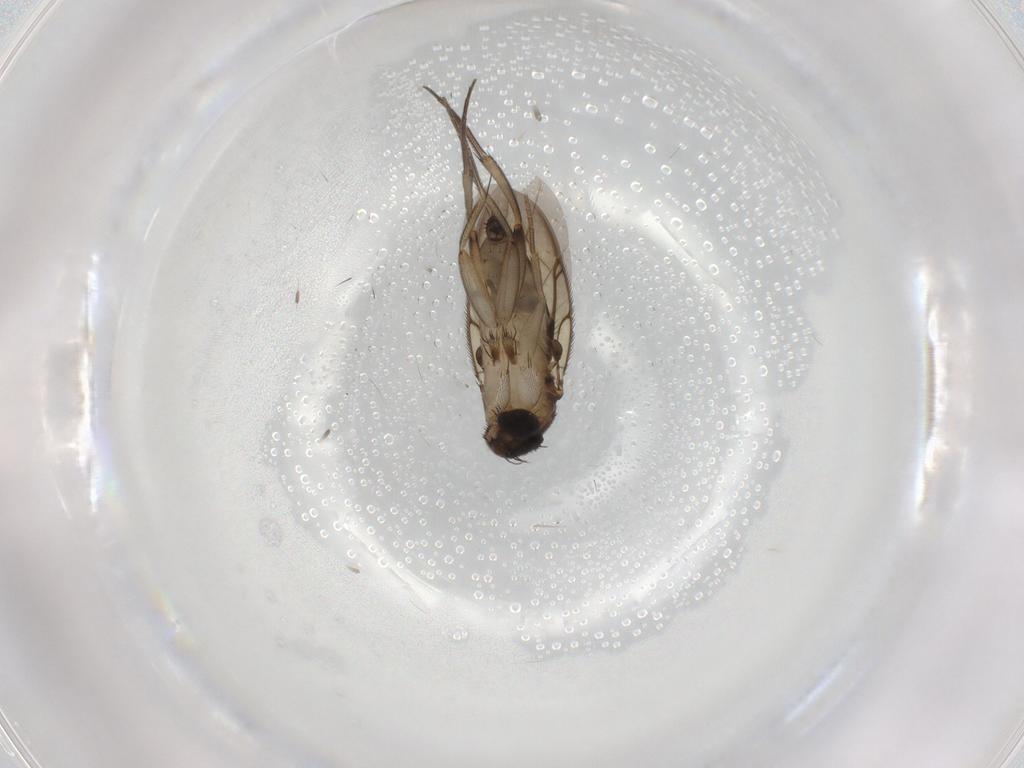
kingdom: Animalia
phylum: Arthropoda
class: Insecta
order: Diptera
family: Phoridae
